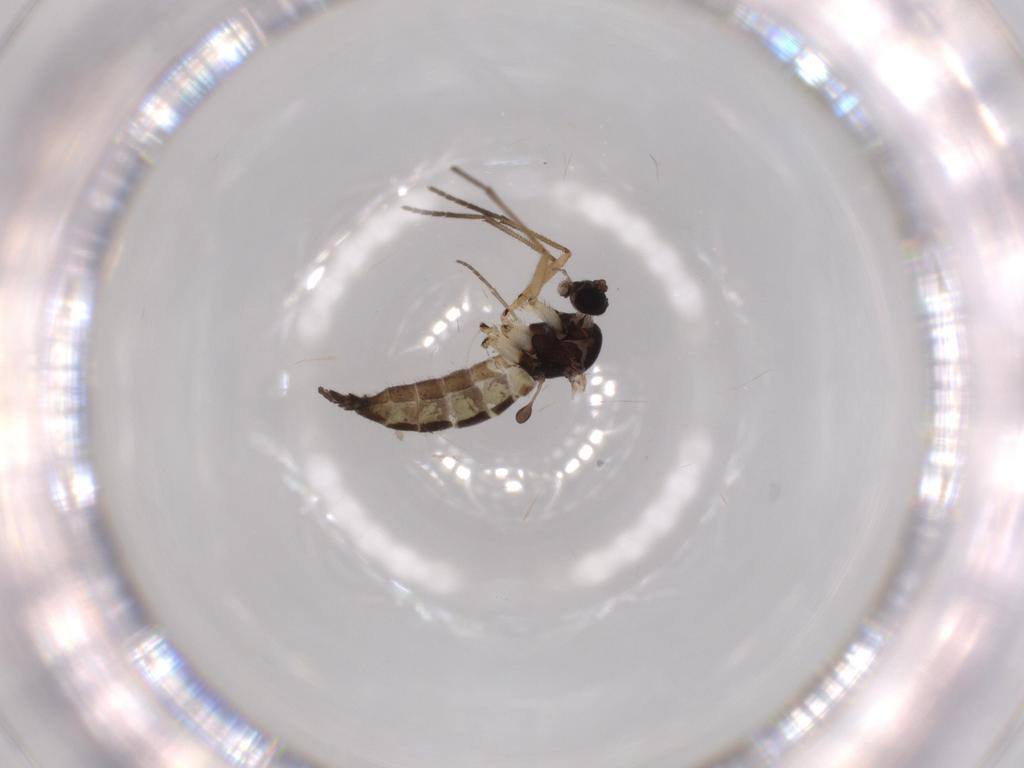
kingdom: Animalia
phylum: Arthropoda
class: Insecta
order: Diptera
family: Sciaridae
